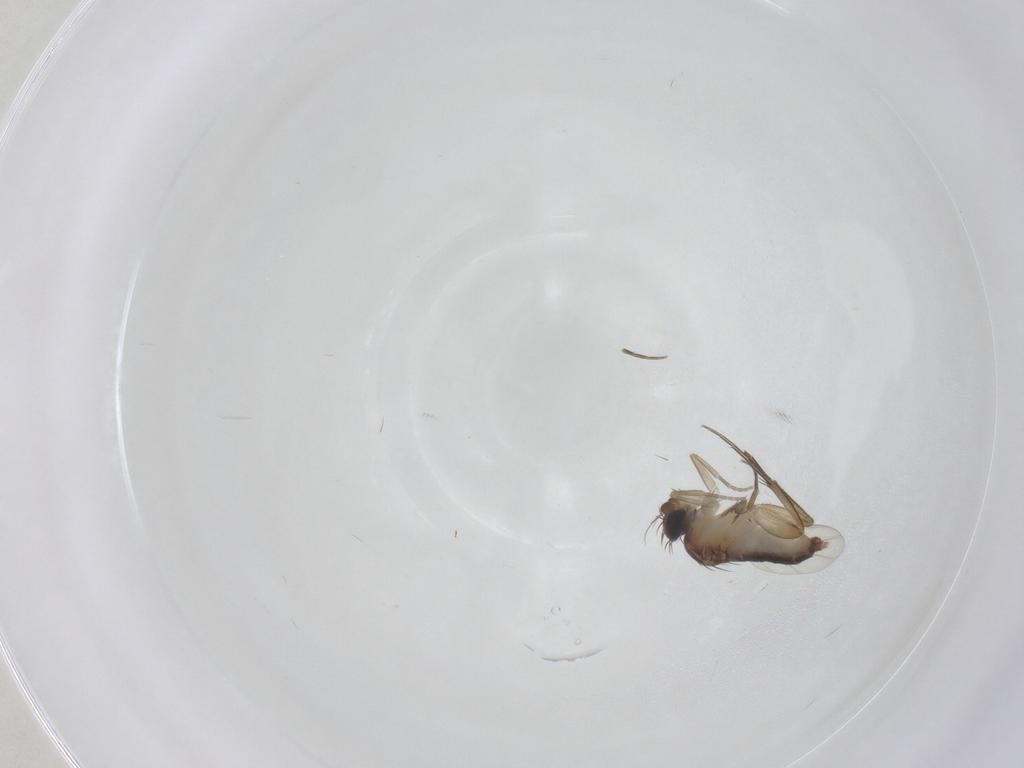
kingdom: Animalia
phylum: Arthropoda
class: Insecta
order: Diptera
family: Phoridae
